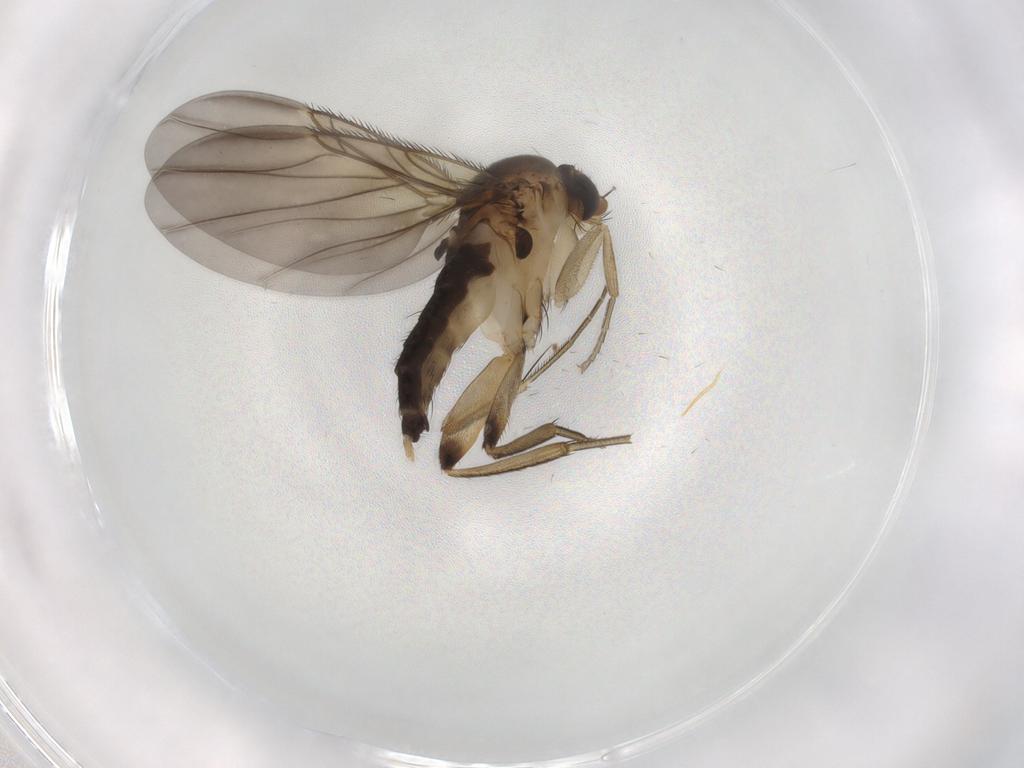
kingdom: Animalia
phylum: Arthropoda
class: Insecta
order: Diptera
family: Phoridae
